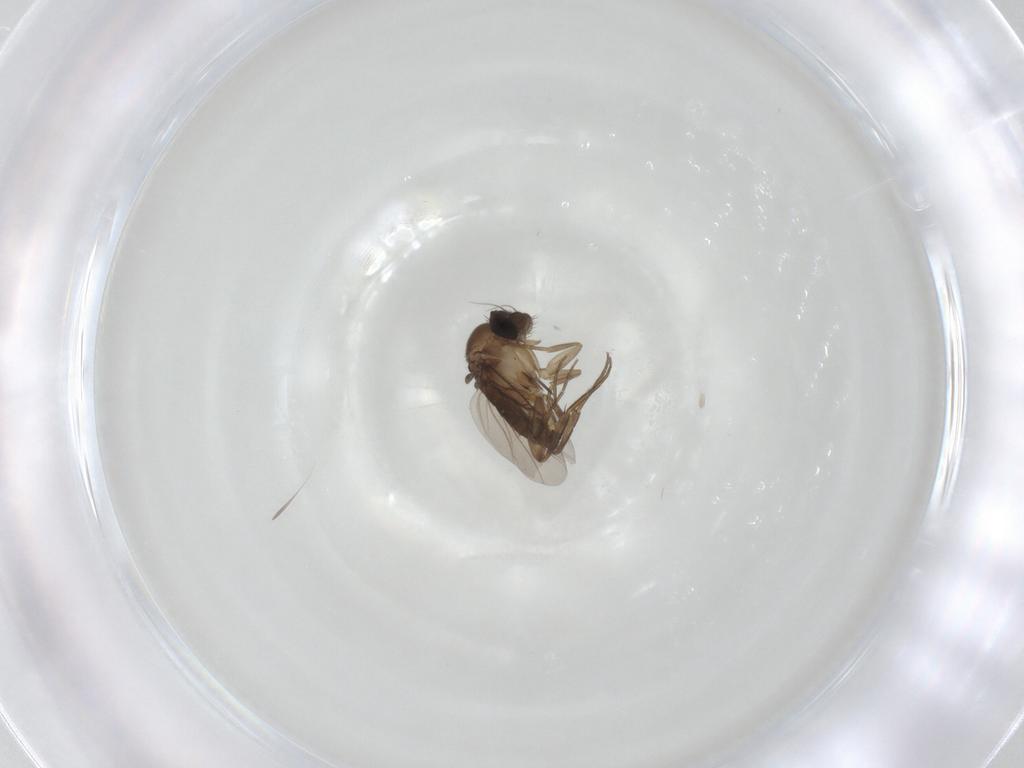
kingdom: Animalia
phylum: Arthropoda
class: Insecta
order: Diptera
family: Phoridae
